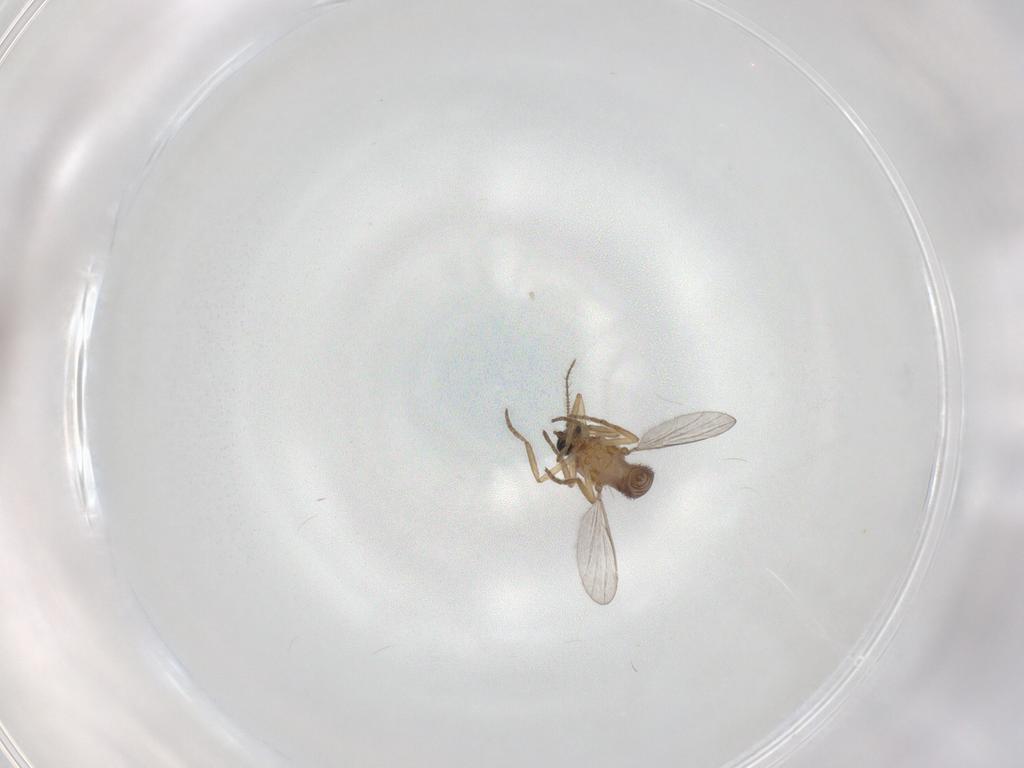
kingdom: Animalia
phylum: Arthropoda
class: Insecta
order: Diptera
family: Ceratopogonidae
